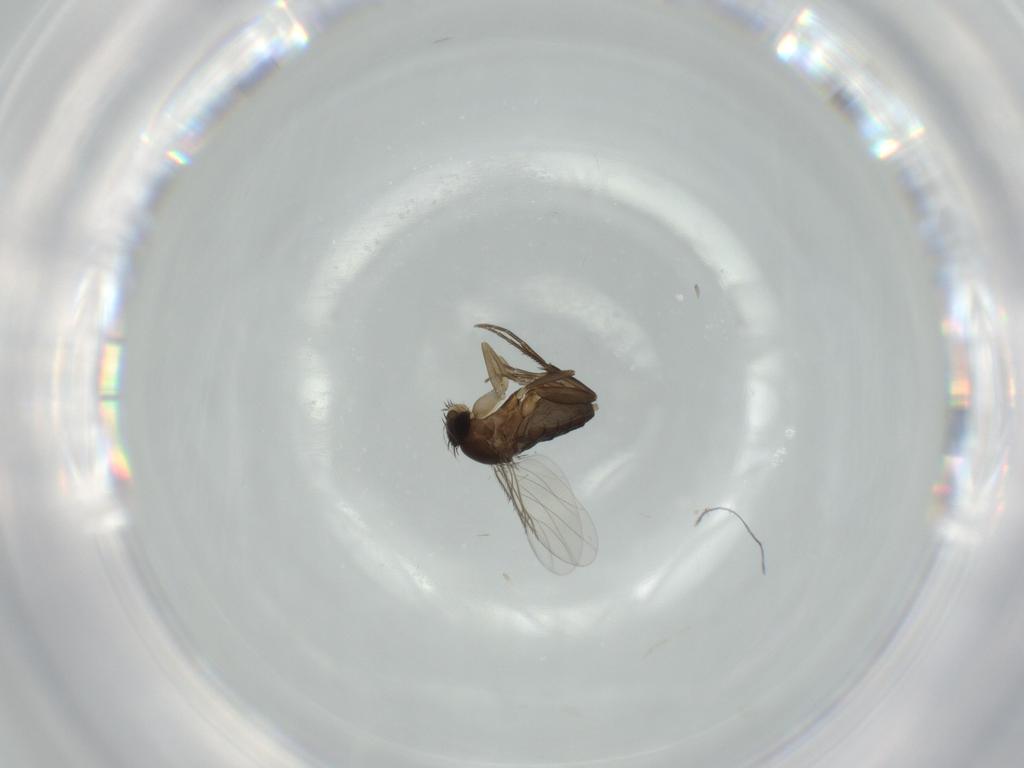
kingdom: Animalia
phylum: Arthropoda
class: Insecta
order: Diptera
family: Phoridae
